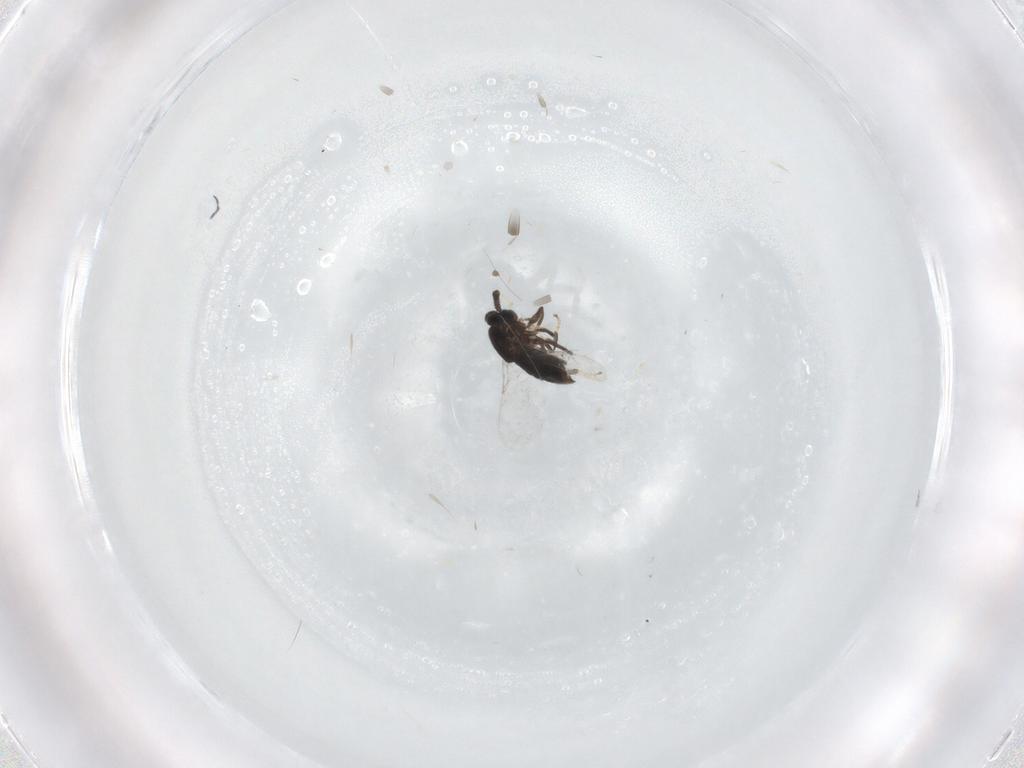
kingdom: Animalia
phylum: Arthropoda
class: Insecta
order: Diptera
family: Scatopsidae
